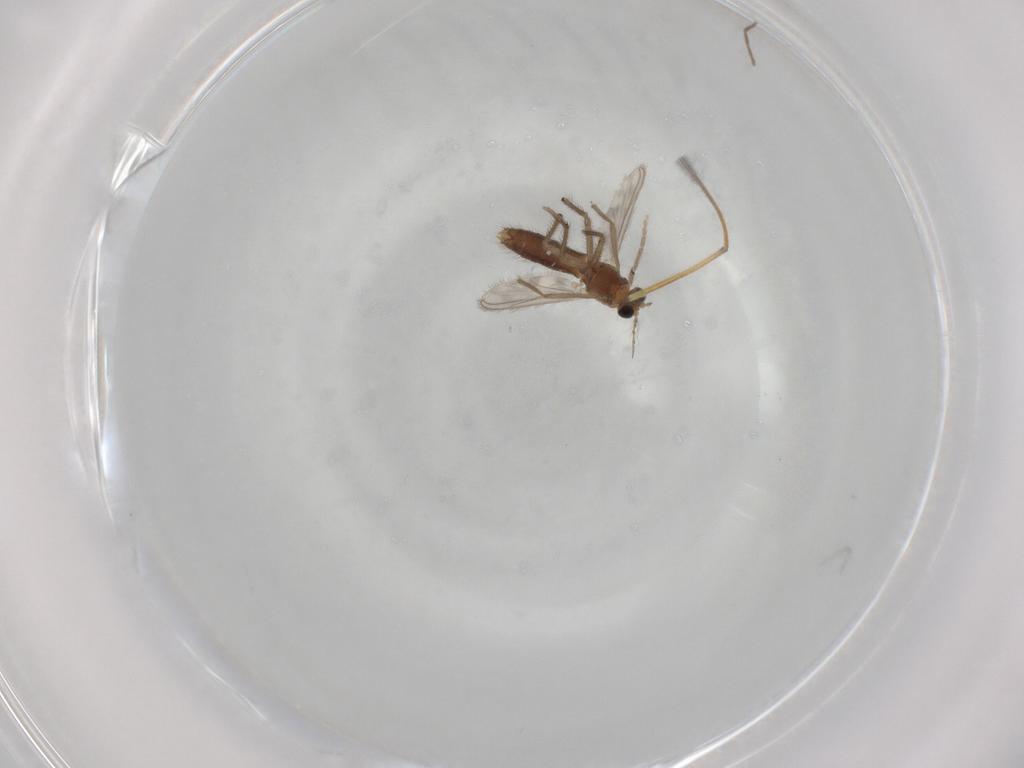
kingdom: Animalia
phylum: Arthropoda
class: Insecta
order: Diptera
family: Chironomidae
